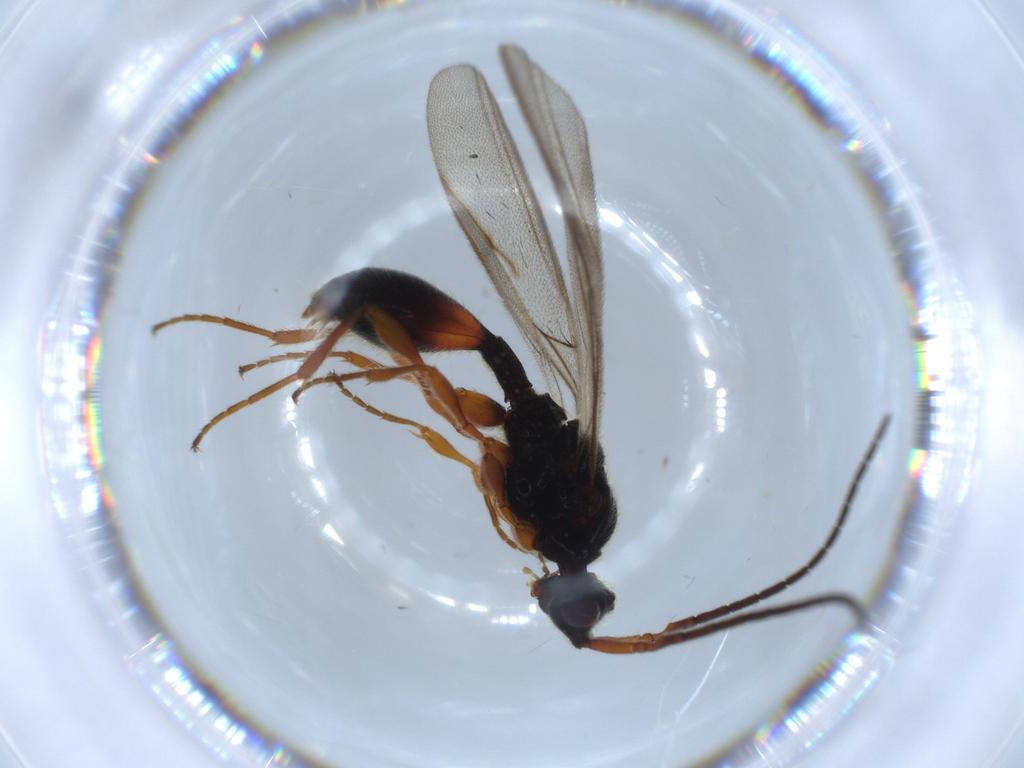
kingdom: Animalia
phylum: Arthropoda
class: Insecta
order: Hymenoptera
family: Braconidae
